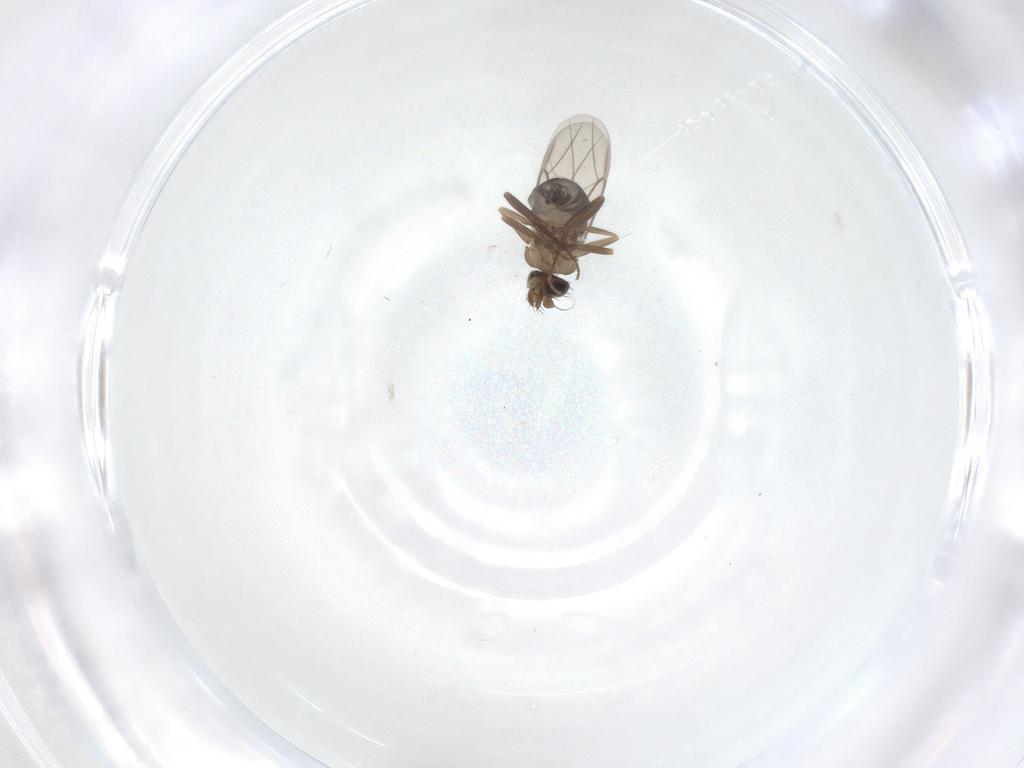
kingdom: Animalia
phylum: Arthropoda
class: Insecta
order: Diptera
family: Phoridae
